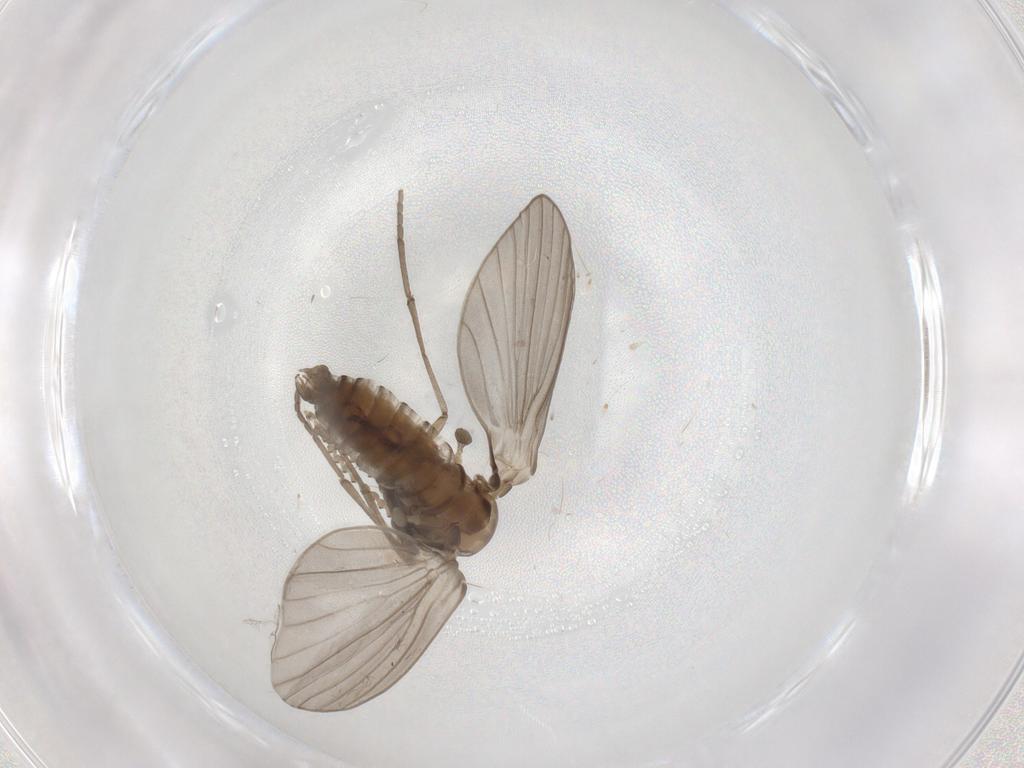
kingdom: Animalia
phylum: Arthropoda
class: Insecta
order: Diptera
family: Psychodidae
